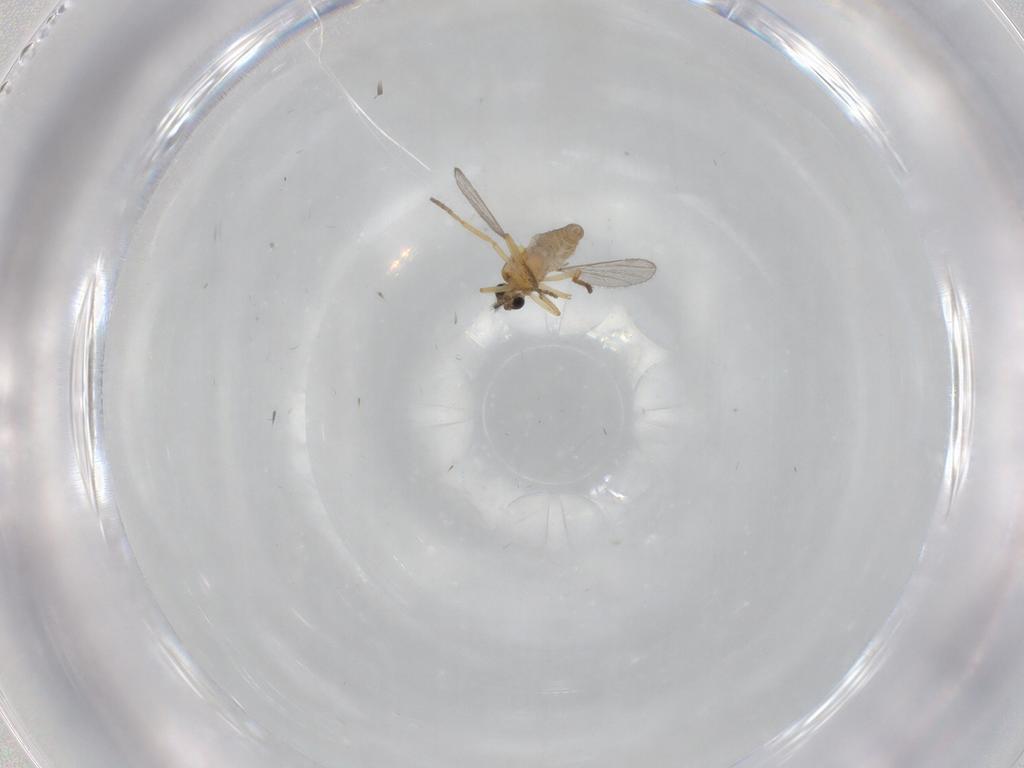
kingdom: Animalia
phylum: Arthropoda
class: Insecta
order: Diptera
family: Ceratopogonidae
